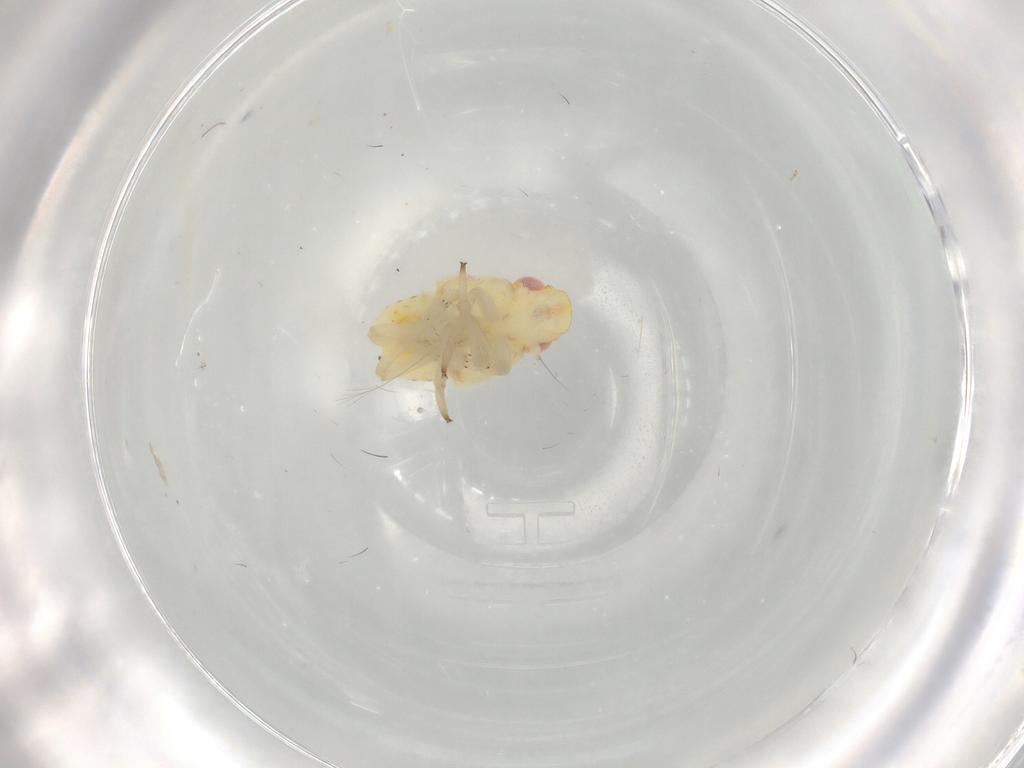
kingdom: Animalia
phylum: Arthropoda
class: Insecta
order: Hemiptera
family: Caliscelidae
